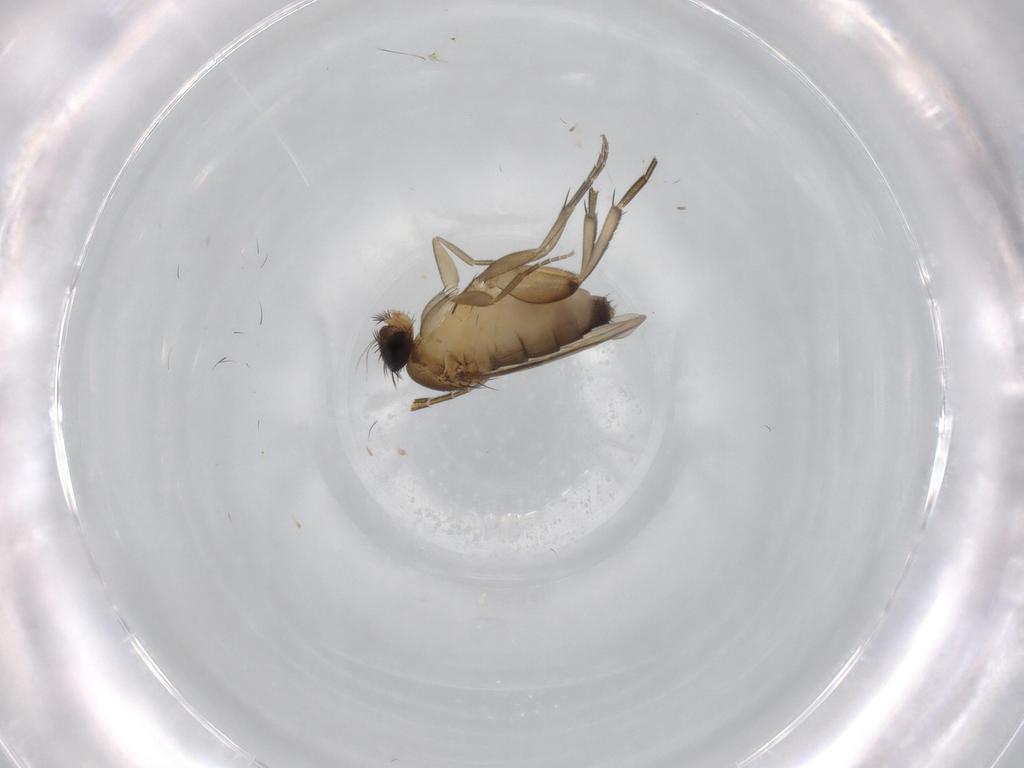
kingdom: Animalia
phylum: Arthropoda
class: Insecta
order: Diptera
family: Phoridae
